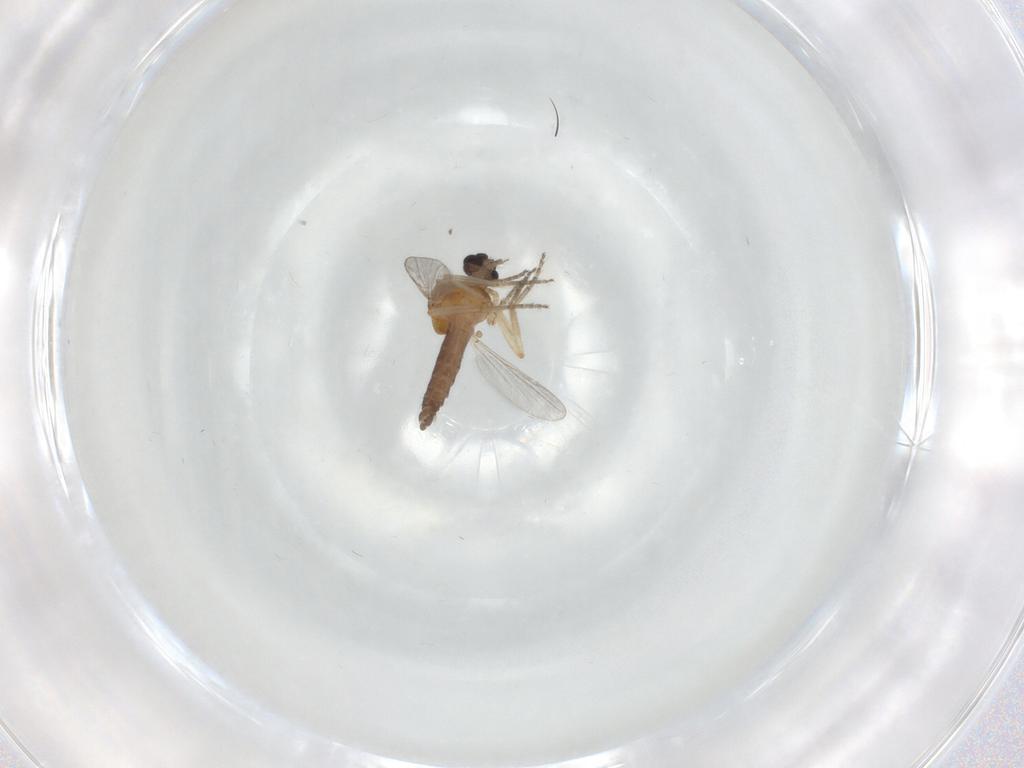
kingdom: Animalia
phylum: Arthropoda
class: Insecta
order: Diptera
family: Ceratopogonidae
